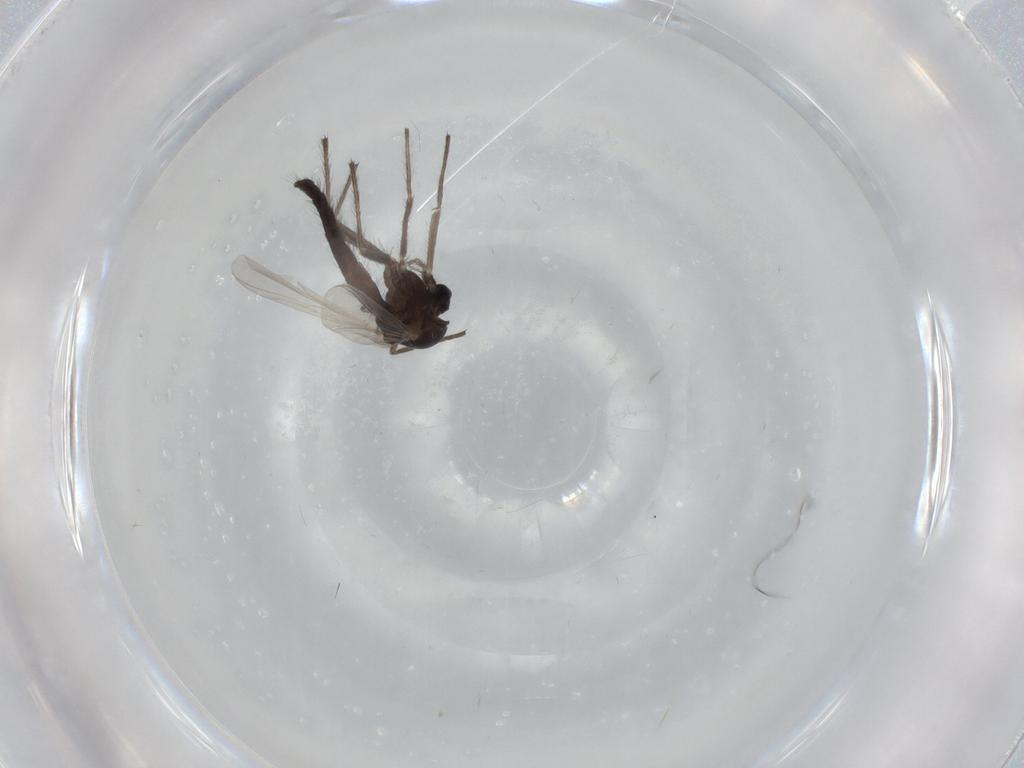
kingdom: Animalia
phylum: Arthropoda
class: Insecta
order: Diptera
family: Chironomidae
